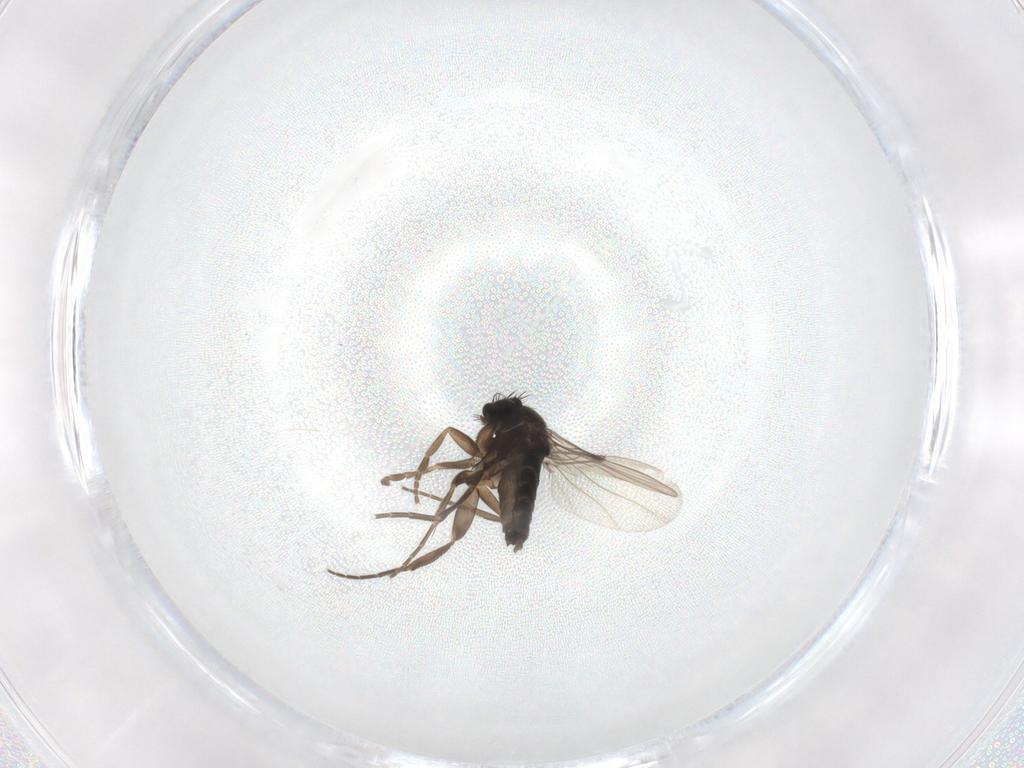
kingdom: Animalia
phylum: Arthropoda
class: Insecta
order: Diptera
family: Phoridae
